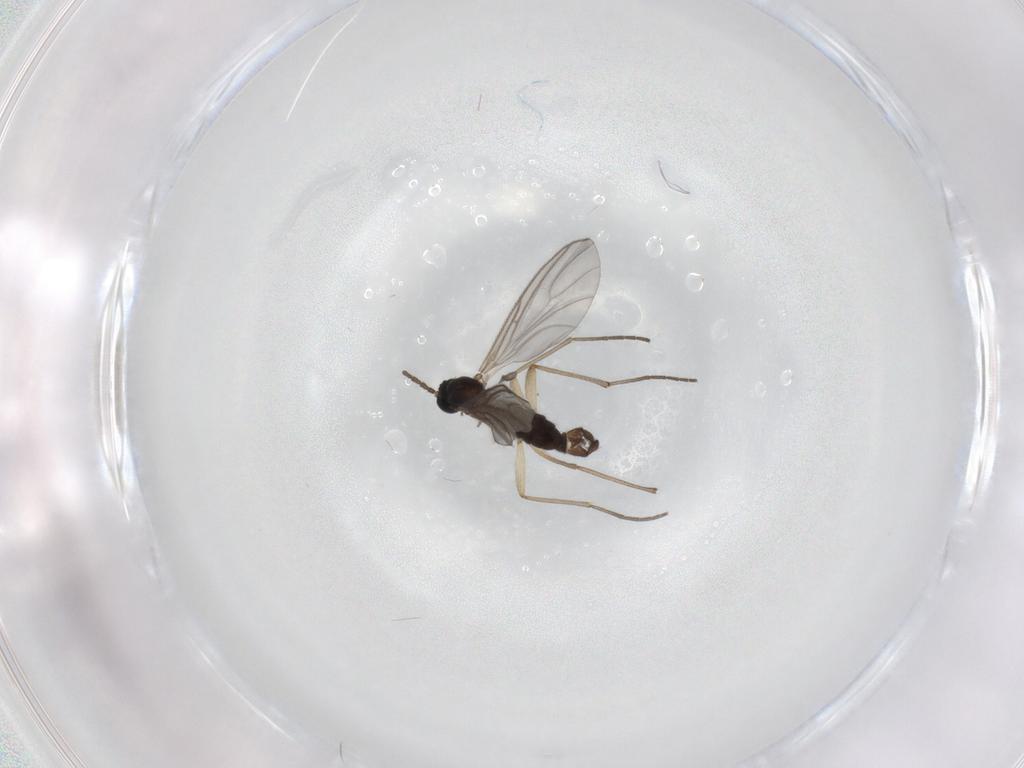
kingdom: Animalia
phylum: Arthropoda
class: Insecta
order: Diptera
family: Sciaridae
